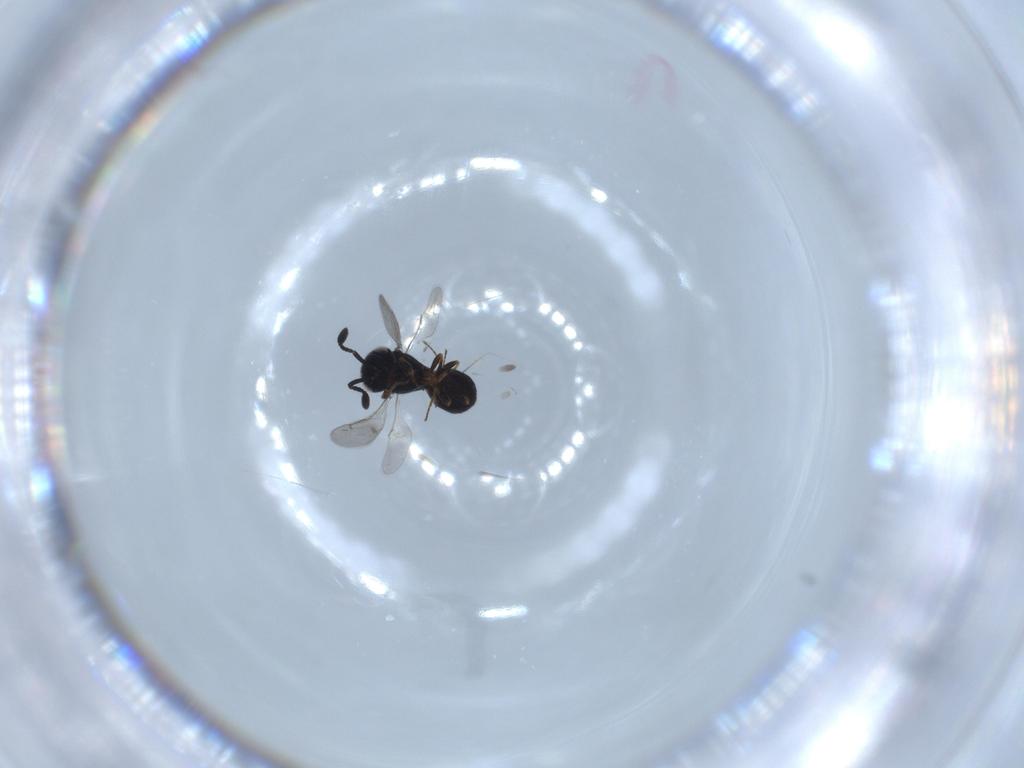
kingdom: Animalia
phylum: Arthropoda
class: Insecta
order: Hymenoptera
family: Scelionidae
